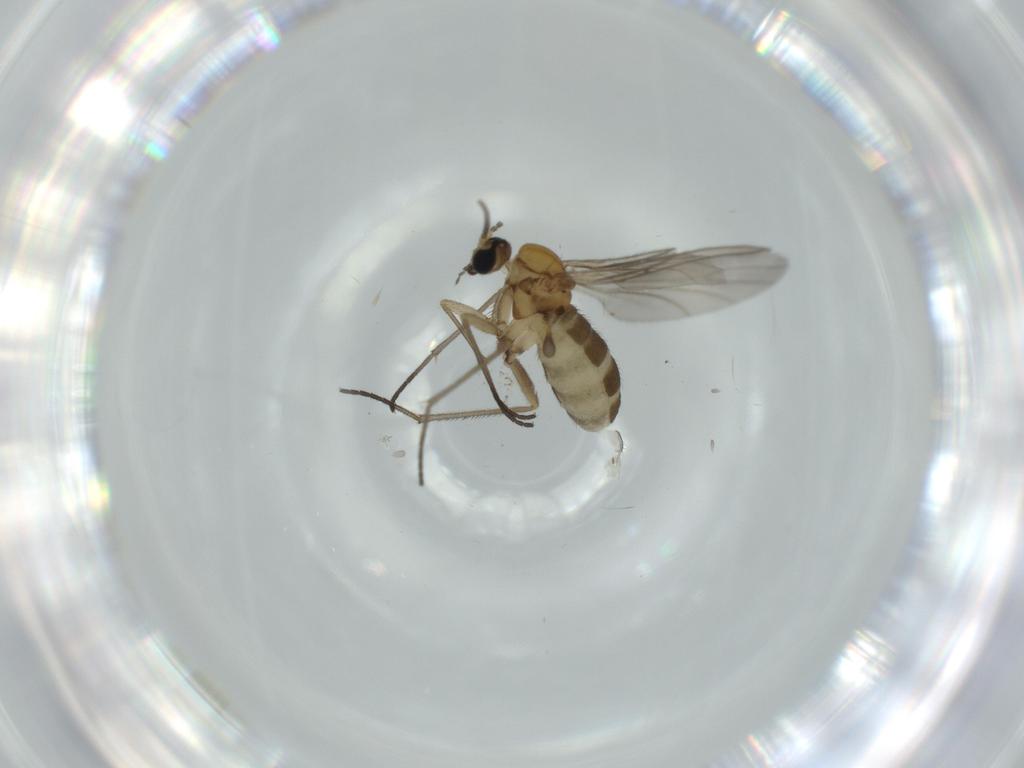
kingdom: Animalia
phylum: Arthropoda
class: Insecta
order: Diptera
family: Sciaridae
